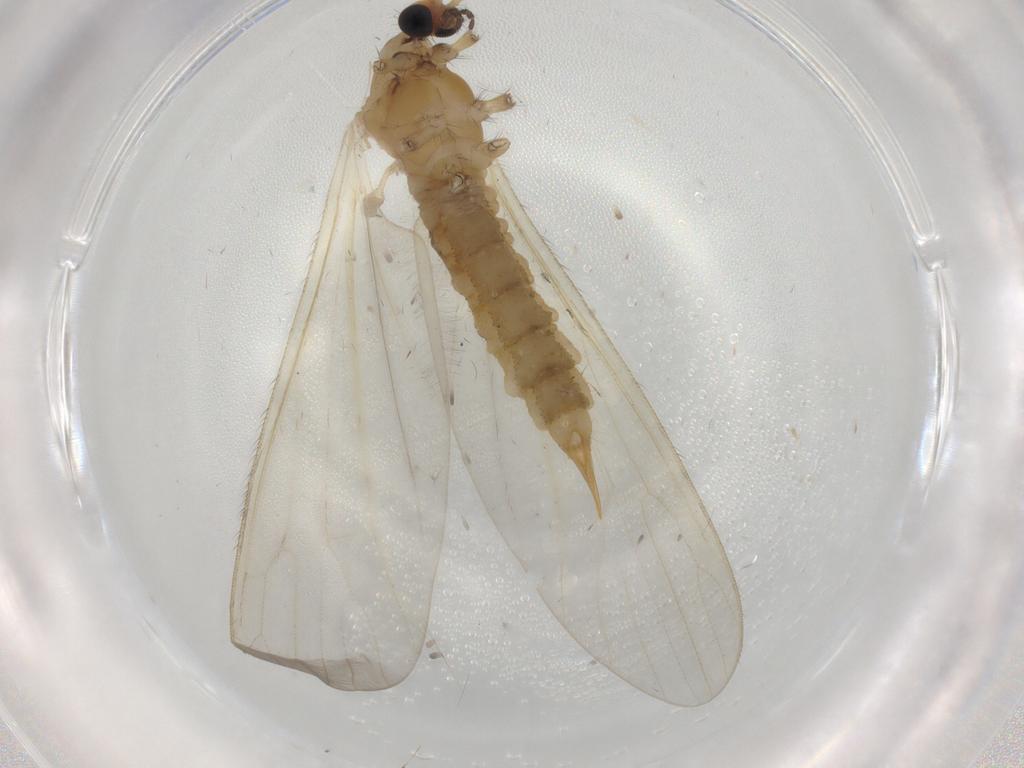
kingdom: Animalia
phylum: Arthropoda
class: Insecta
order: Diptera
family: Limoniidae
